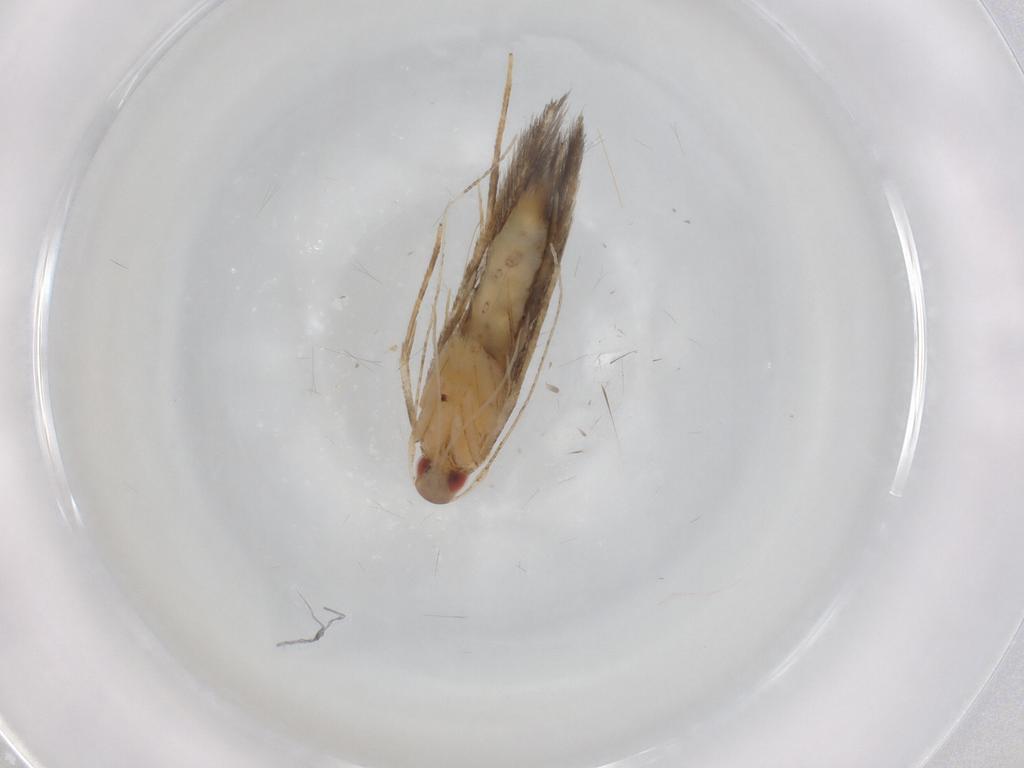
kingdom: Animalia
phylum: Arthropoda
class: Insecta
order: Lepidoptera
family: Cosmopterigidae
